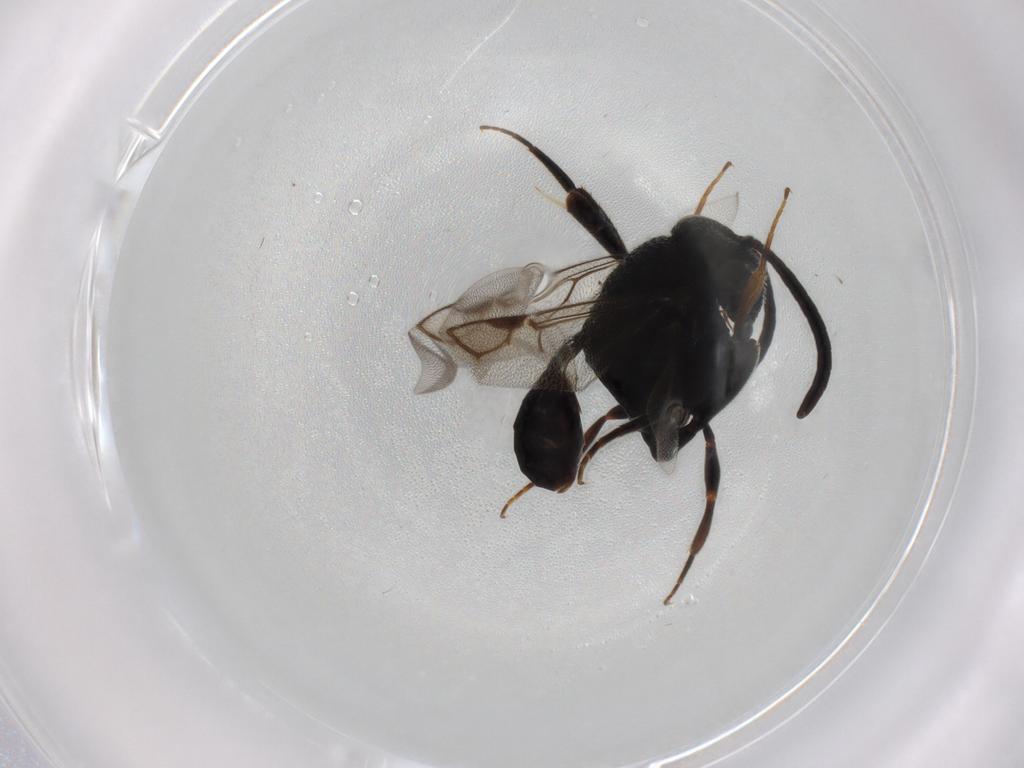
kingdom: Animalia
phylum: Arthropoda
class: Insecta
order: Hymenoptera
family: Evaniidae
